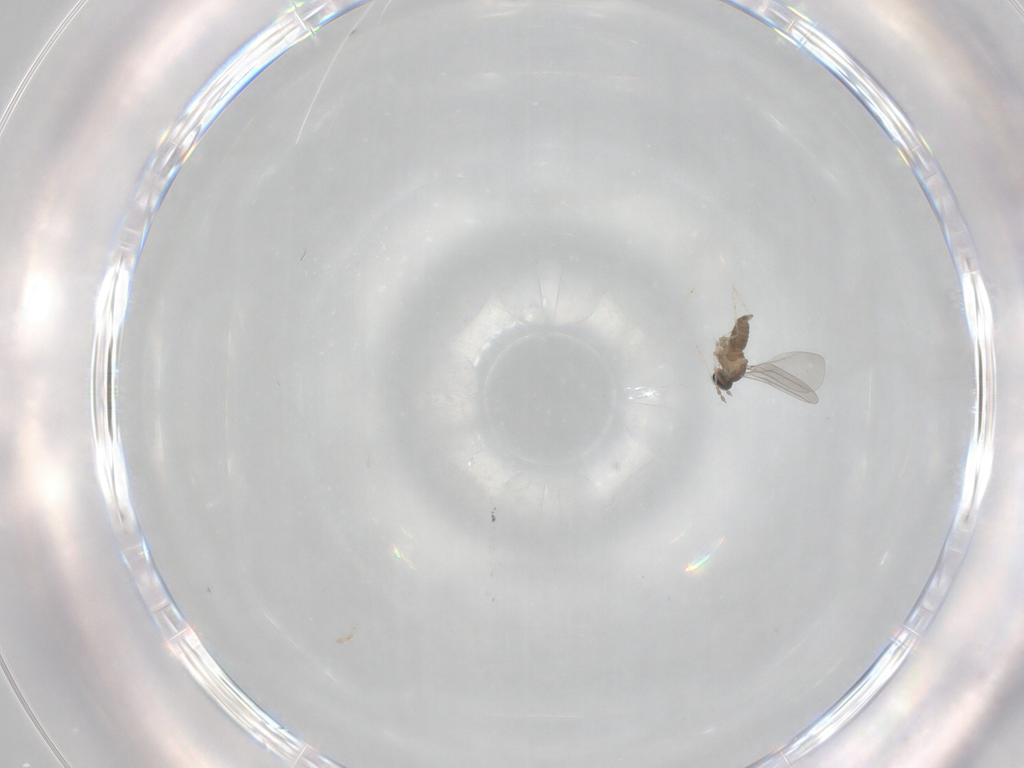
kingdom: Animalia
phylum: Arthropoda
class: Insecta
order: Diptera
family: Cecidomyiidae
